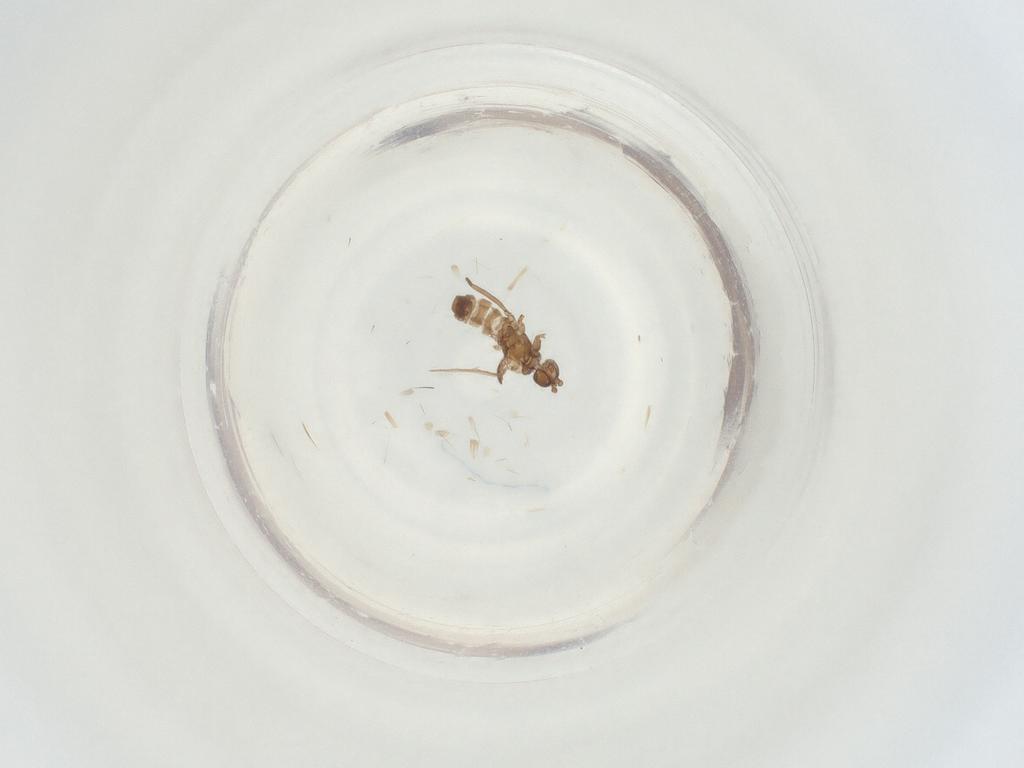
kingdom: Animalia
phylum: Arthropoda
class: Insecta
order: Diptera
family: Sciaridae
